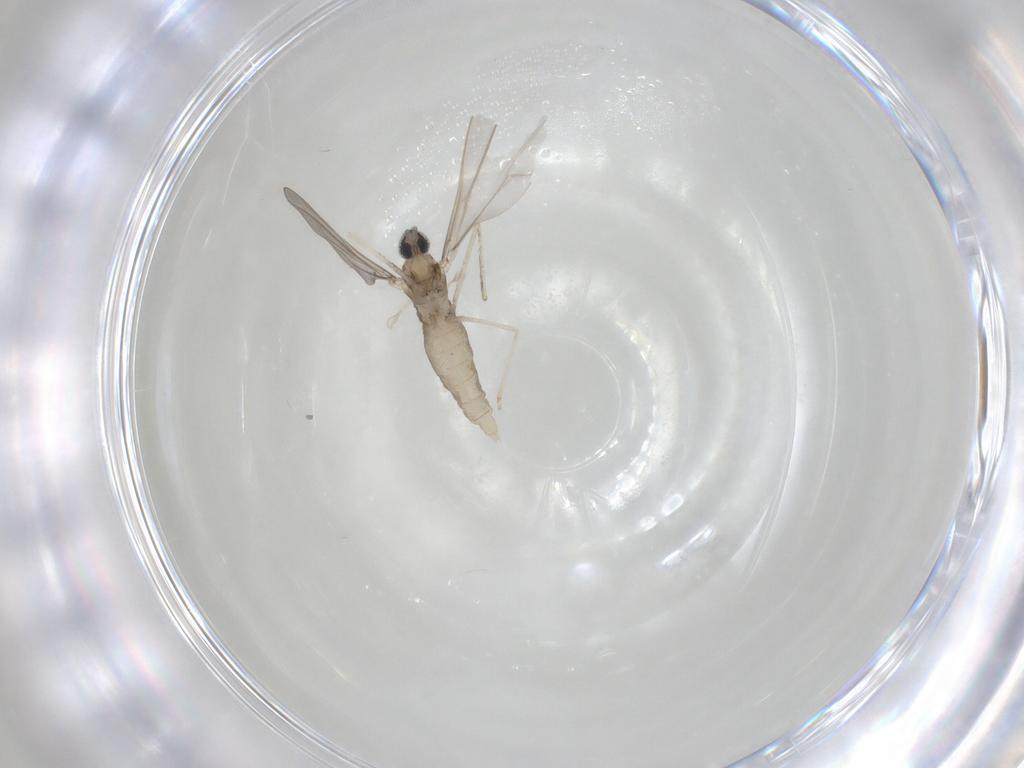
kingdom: Animalia
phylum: Arthropoda
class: Insecta
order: Diptera
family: Cecidomyiidae
